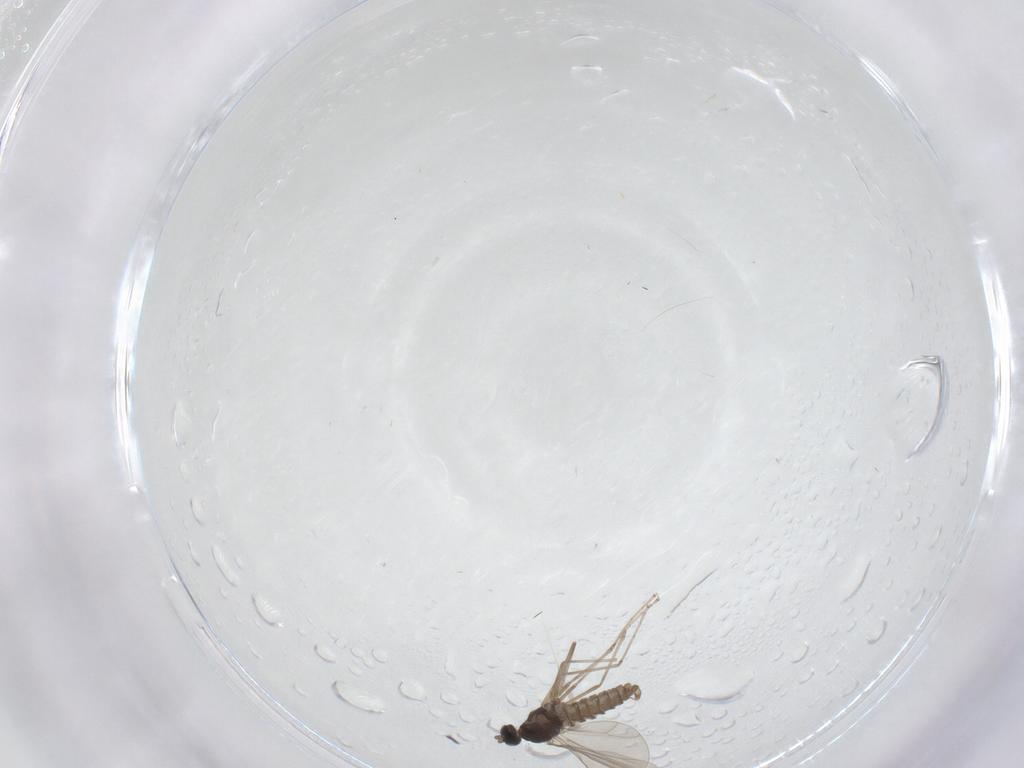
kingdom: Animalia
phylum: Arthropoda
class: Insecta
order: Diptera
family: Cecidomyiidae
